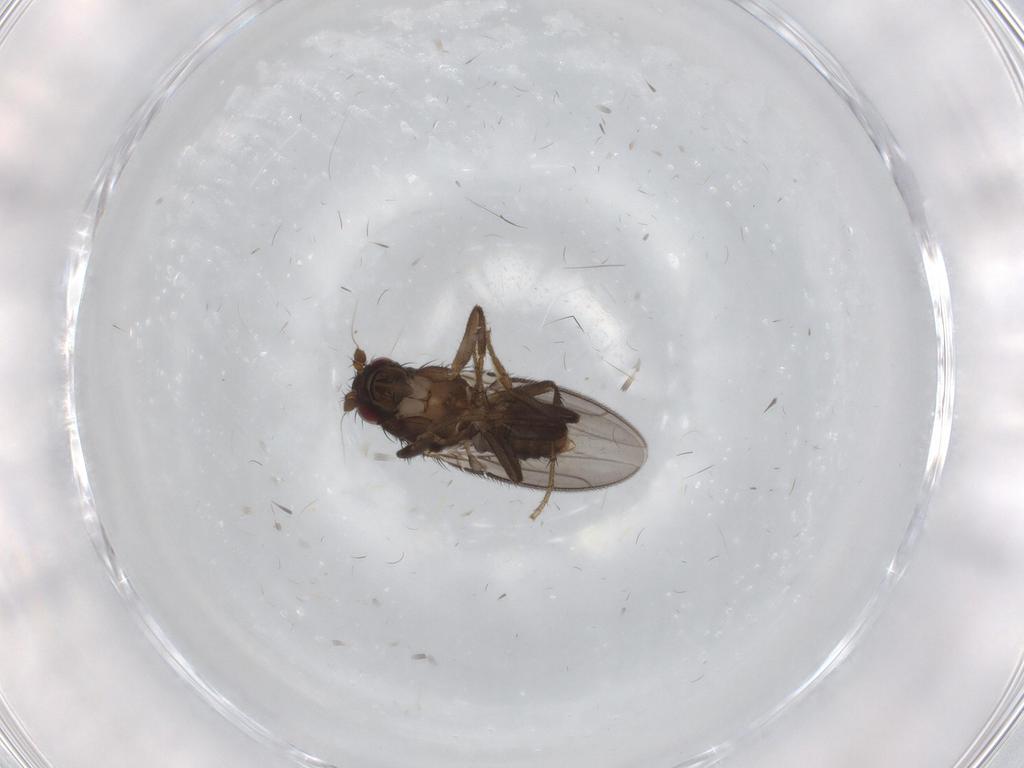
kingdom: Animalia
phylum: Arthropoda
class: Insecta
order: Diptera
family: Sphaeroceridae
